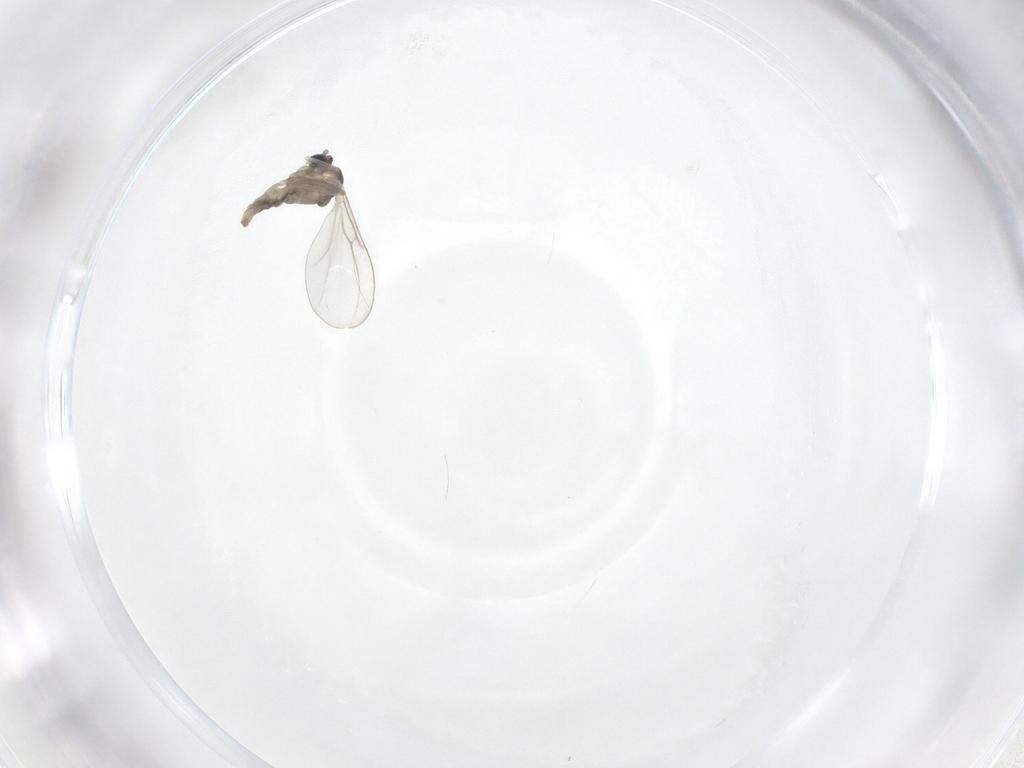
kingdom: Animalia
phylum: Arthropoda
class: Insecta
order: Diptera
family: Cecidomyiidae
